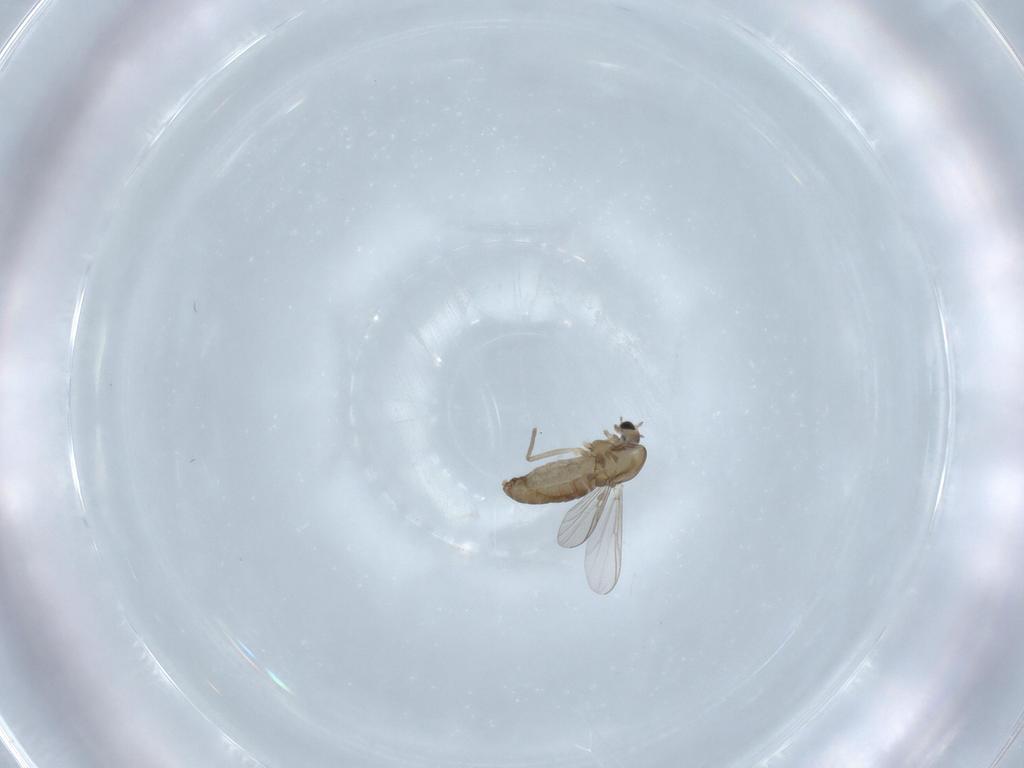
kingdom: Animalia
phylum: Arthropoda
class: Insecta
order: Diptera
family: Chironomidae
